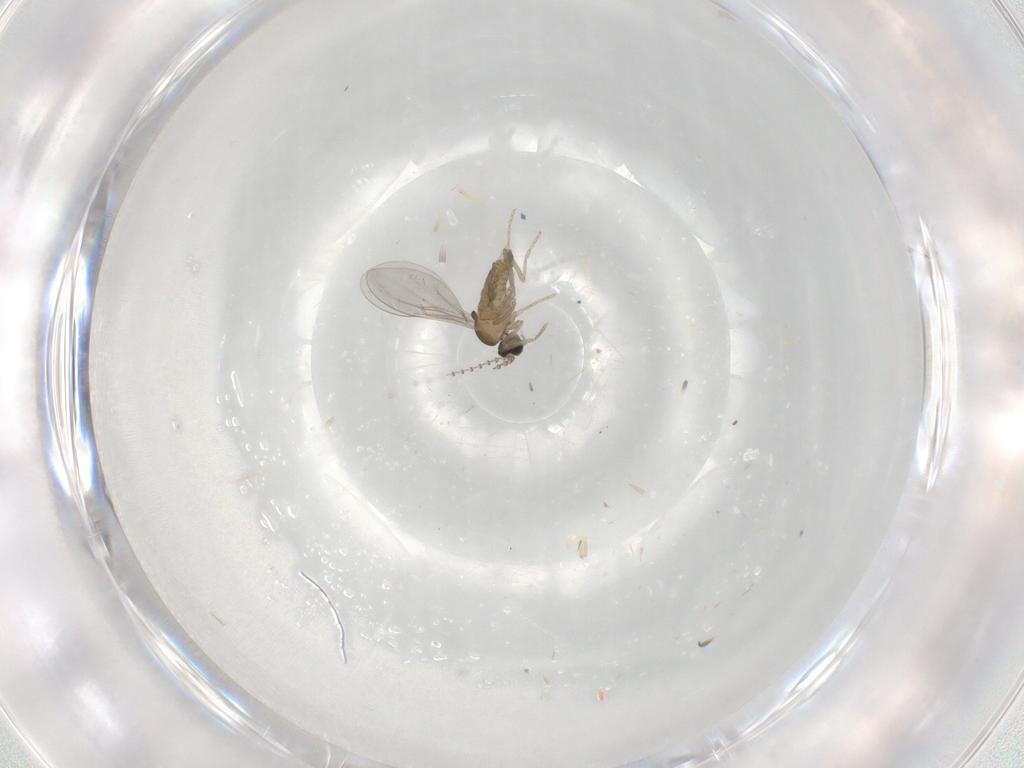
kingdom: Animalia
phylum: Arthropoda
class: Insecta
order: Diptera
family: Cecidomyiidae
